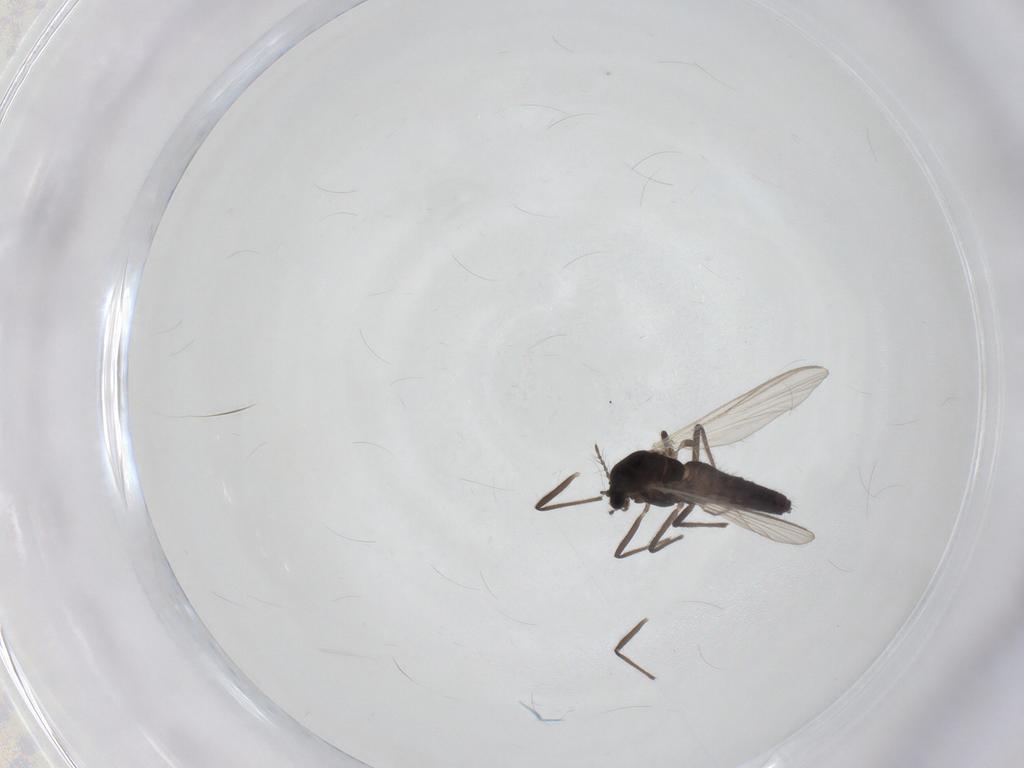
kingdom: Animalia
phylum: Arthropoda
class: Insecta
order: Diptera
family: Chironomidae
